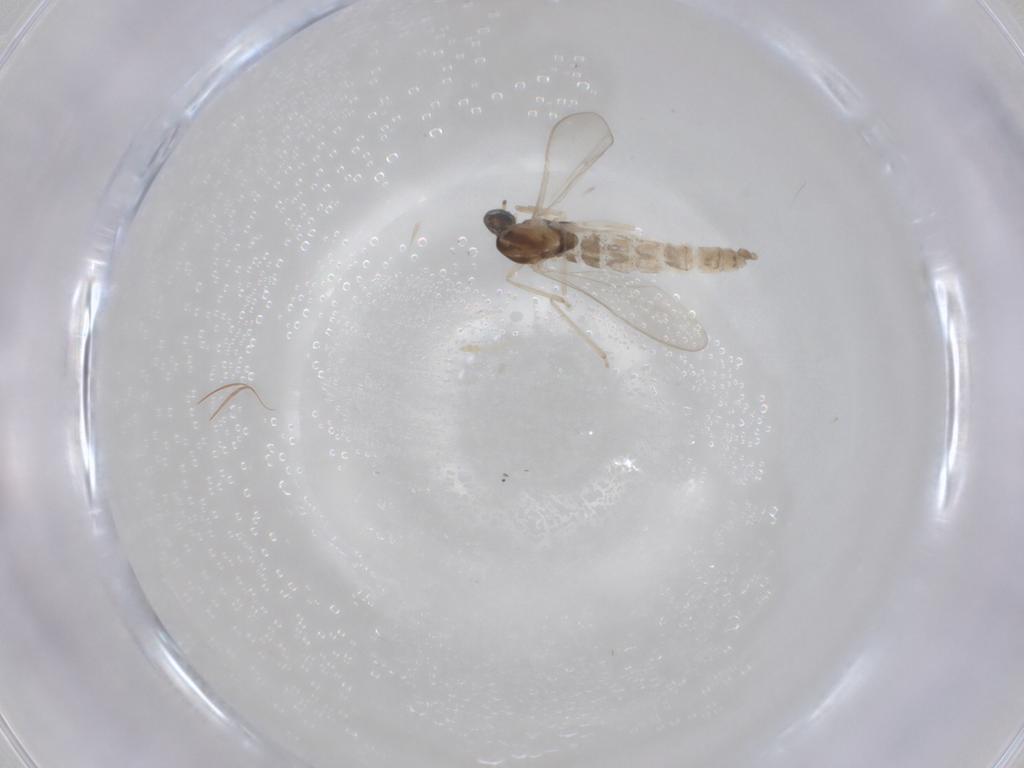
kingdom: Animalia
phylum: Arthropoda
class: Insecta
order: Diptera
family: Cecidomyiidae
